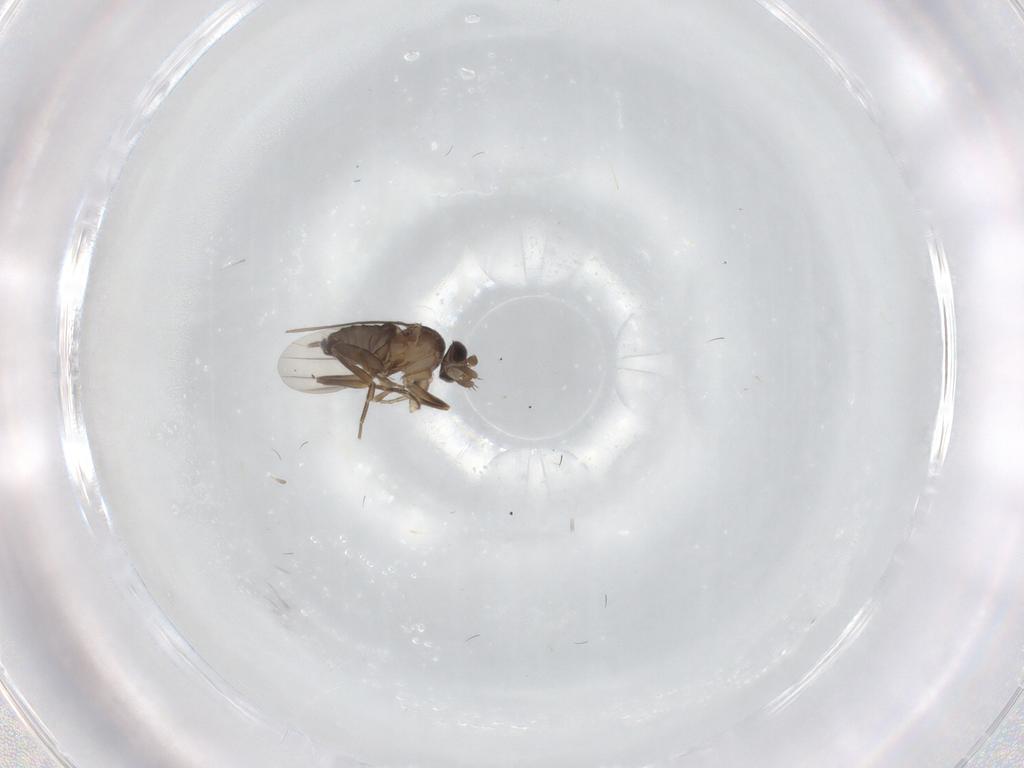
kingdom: Animalia
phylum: Arthropoda
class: Insecta
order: Diptera
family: Phoridae
